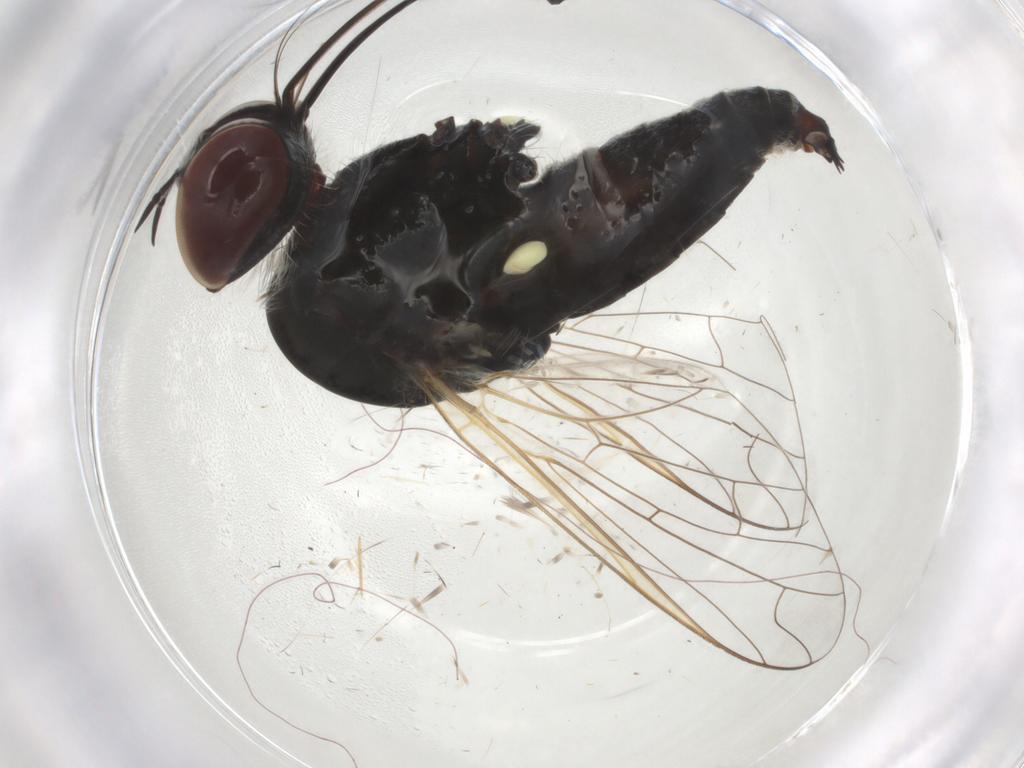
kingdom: Animalia
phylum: Arthropoda
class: Insecta
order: Diptera
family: Bombyliidae
